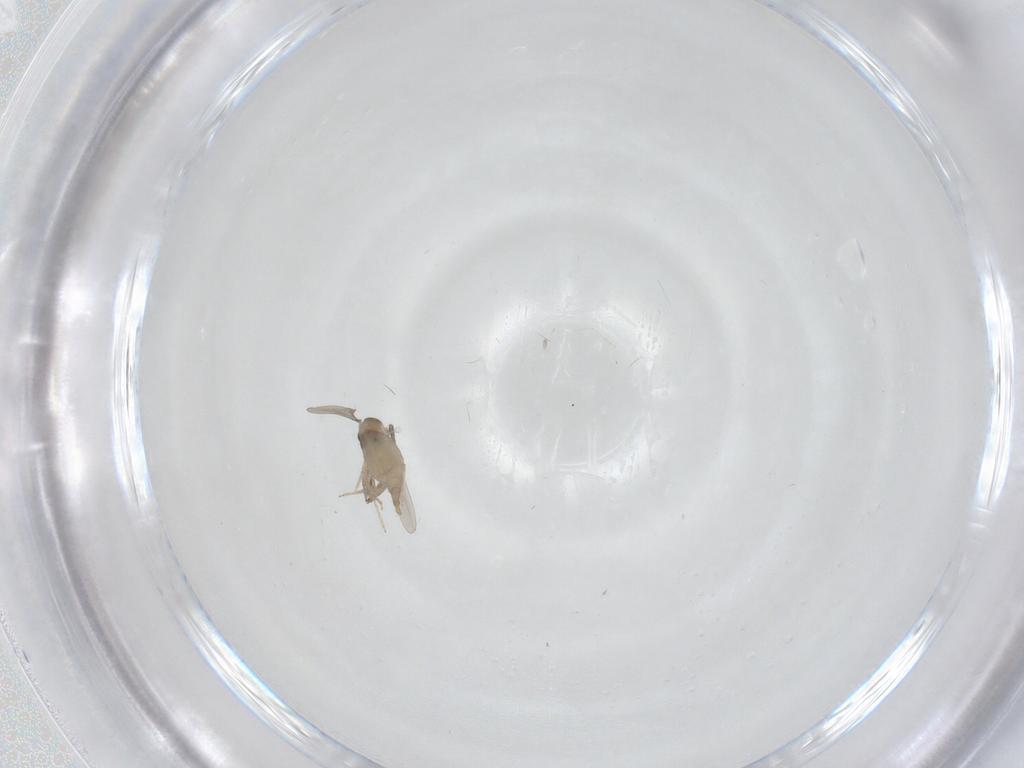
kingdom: Animalia
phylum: Arthropoda
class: Insecta
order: Diptera
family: Cecidomyiidae
